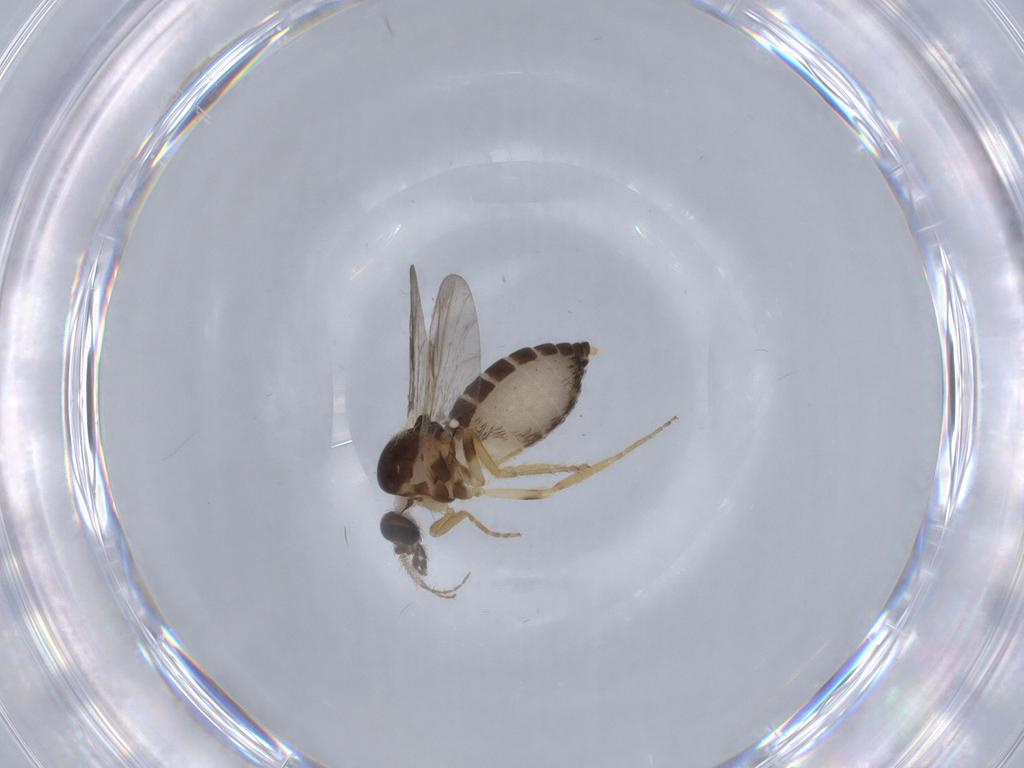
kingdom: Animalia
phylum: Arthropoda
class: Insecta
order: Diptera
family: Ceratopogonidae
